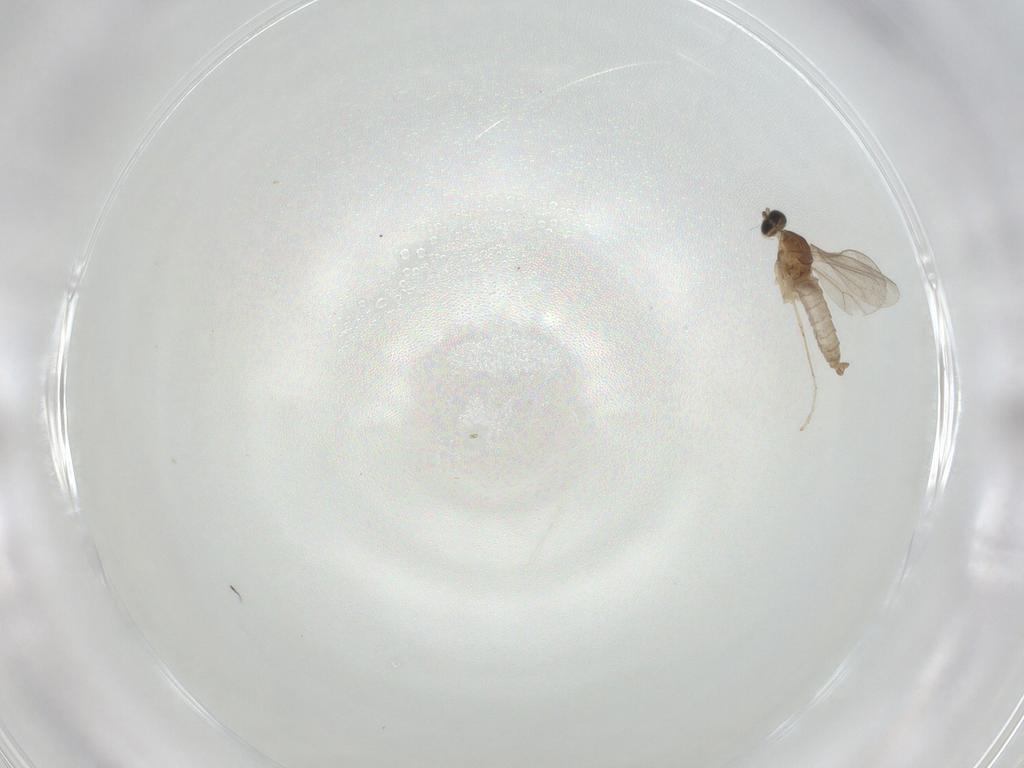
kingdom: Animalia
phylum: Arthropoda
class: Insecta
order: Diptera
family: Cecidomyiidae
